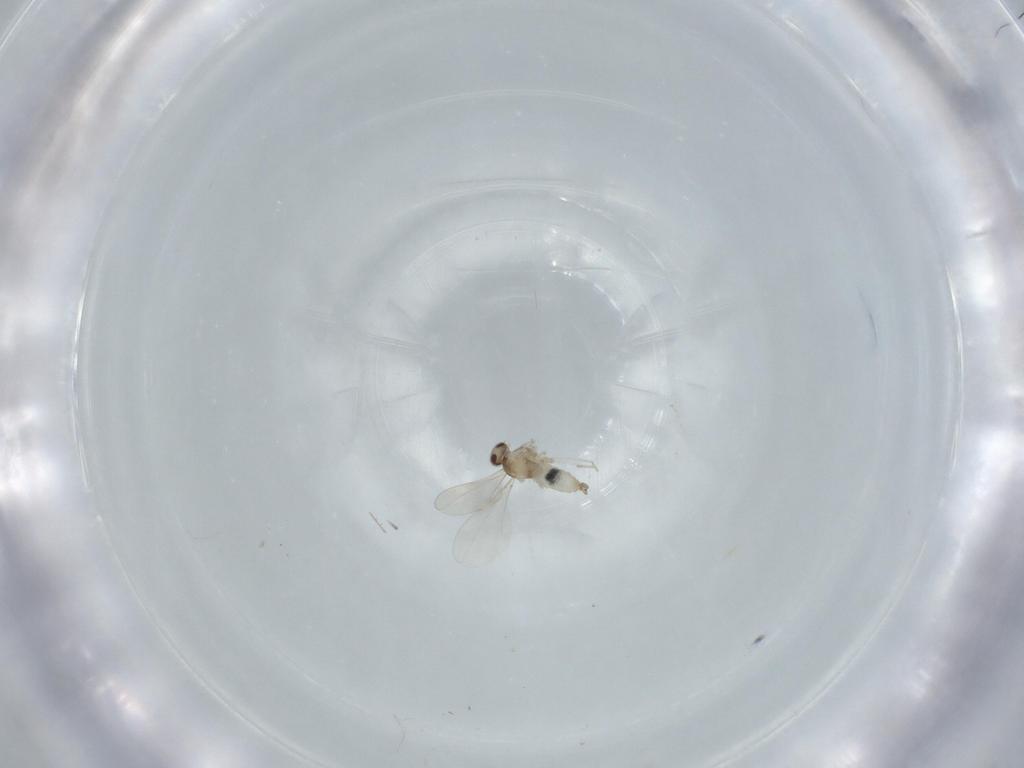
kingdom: Animalia
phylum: Arthropoda
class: Insecta
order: Diptera
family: Cecidomyiidae
